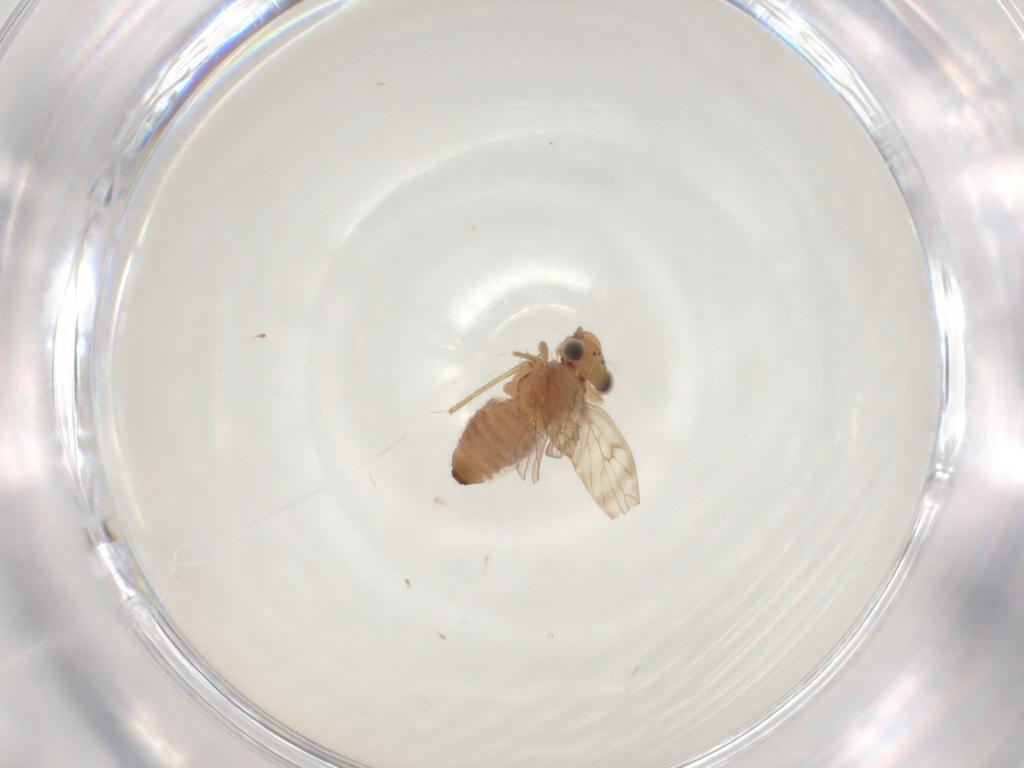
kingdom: Animalia
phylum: Arthropoda
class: Insecta
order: Psocodea
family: Lepidopsocidae
